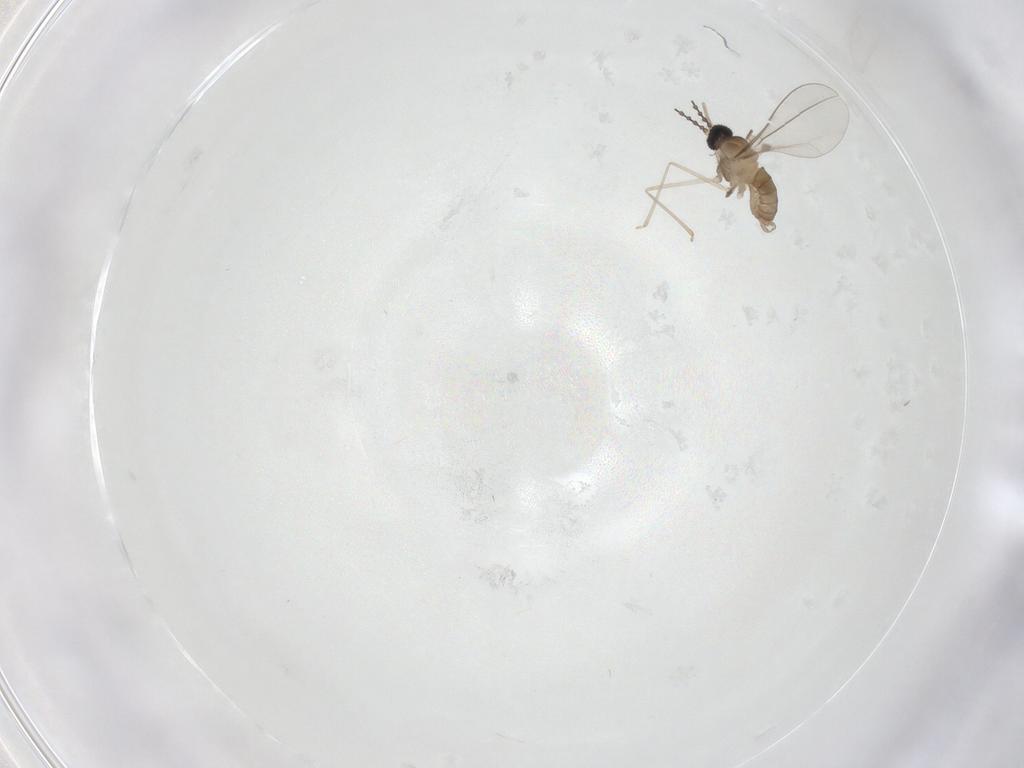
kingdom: Animalia
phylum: Arthropoda
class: Insecta
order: Diptera
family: Cecidomyiidae
